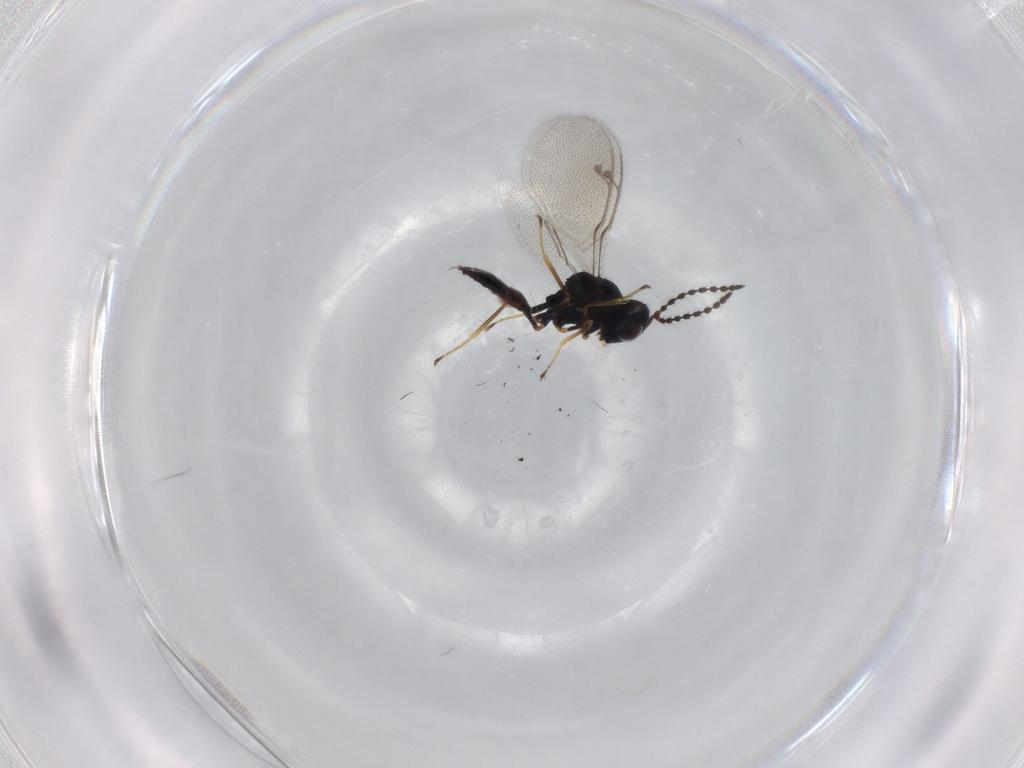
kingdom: Animalia
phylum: Arthropoda
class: Insecta
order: Hymenoptera
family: Pteromalidae
